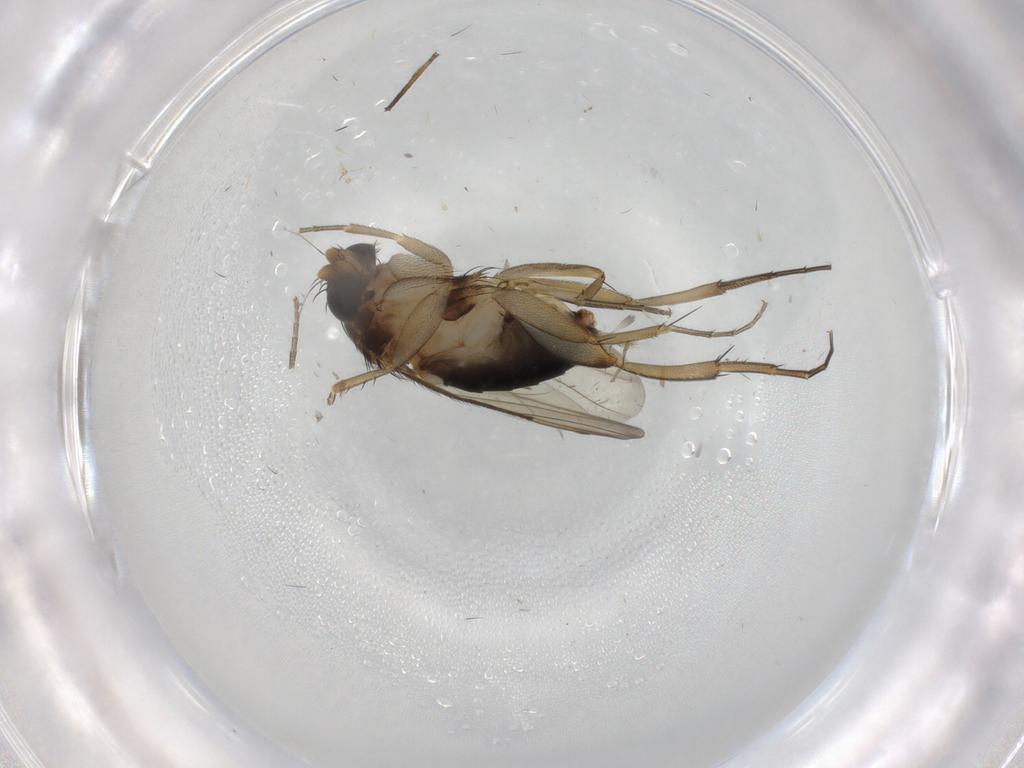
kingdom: Animalia
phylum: Arthropoda
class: Insecta
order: Diptera
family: Phoridae
